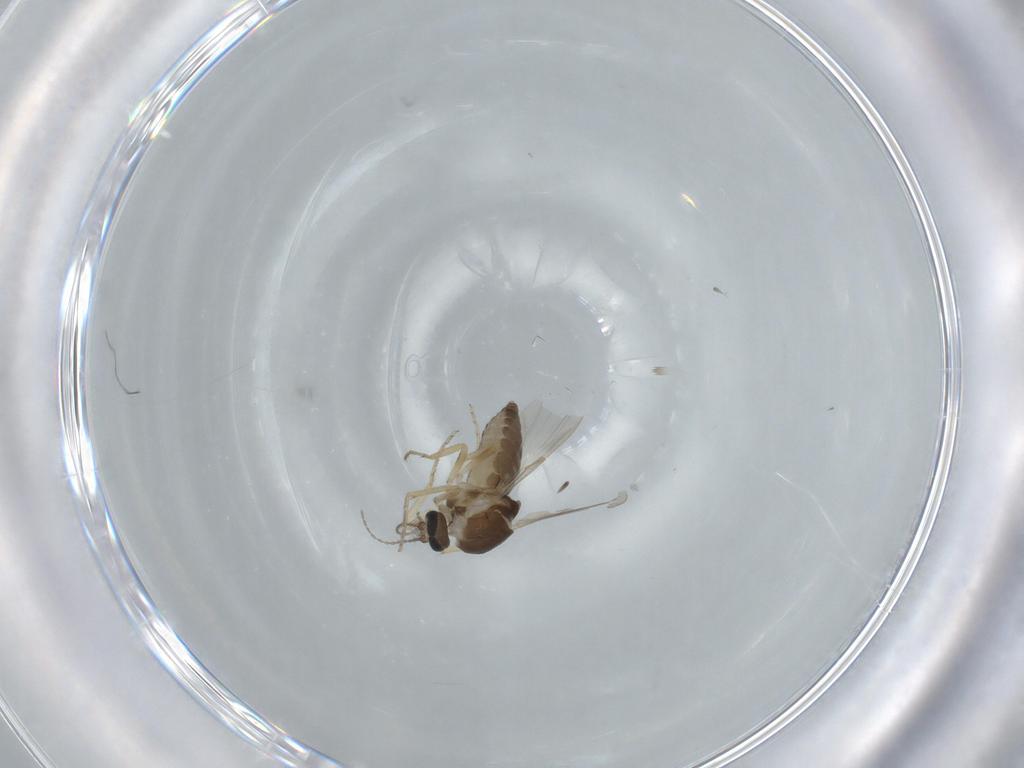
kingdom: Animalia
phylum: Arthropoda
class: Insecta
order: Diptera
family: Ceratopogonidae
